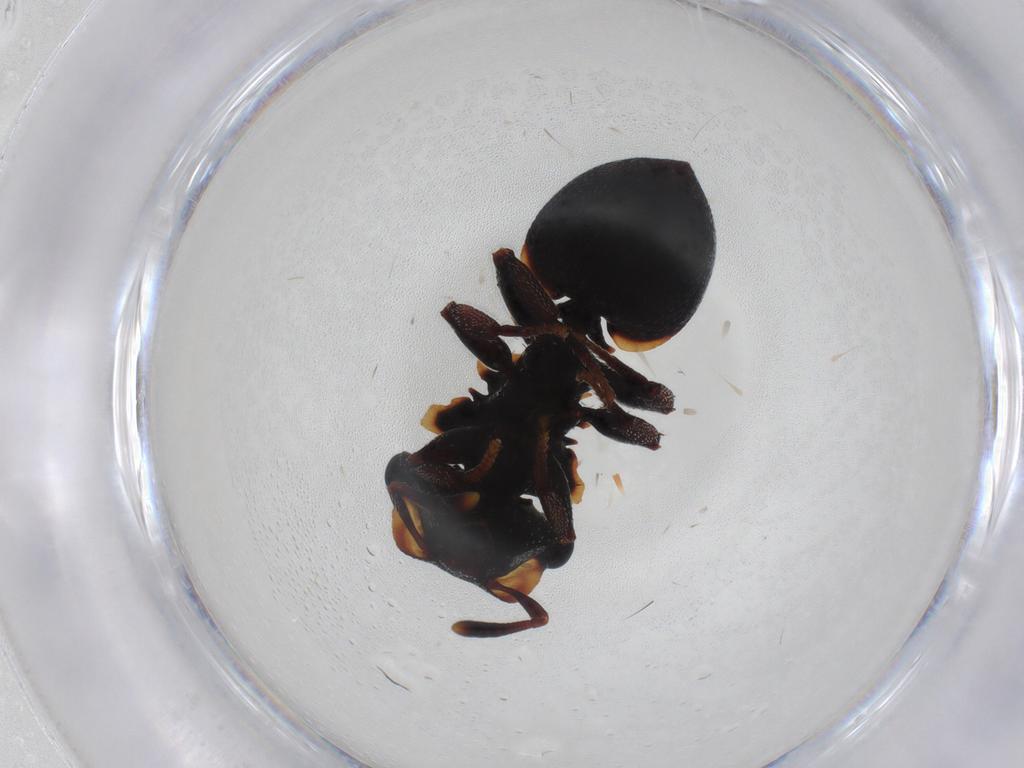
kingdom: Animalia
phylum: Arthropoda
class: Insecta
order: Hymenoptera
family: Formicidae
